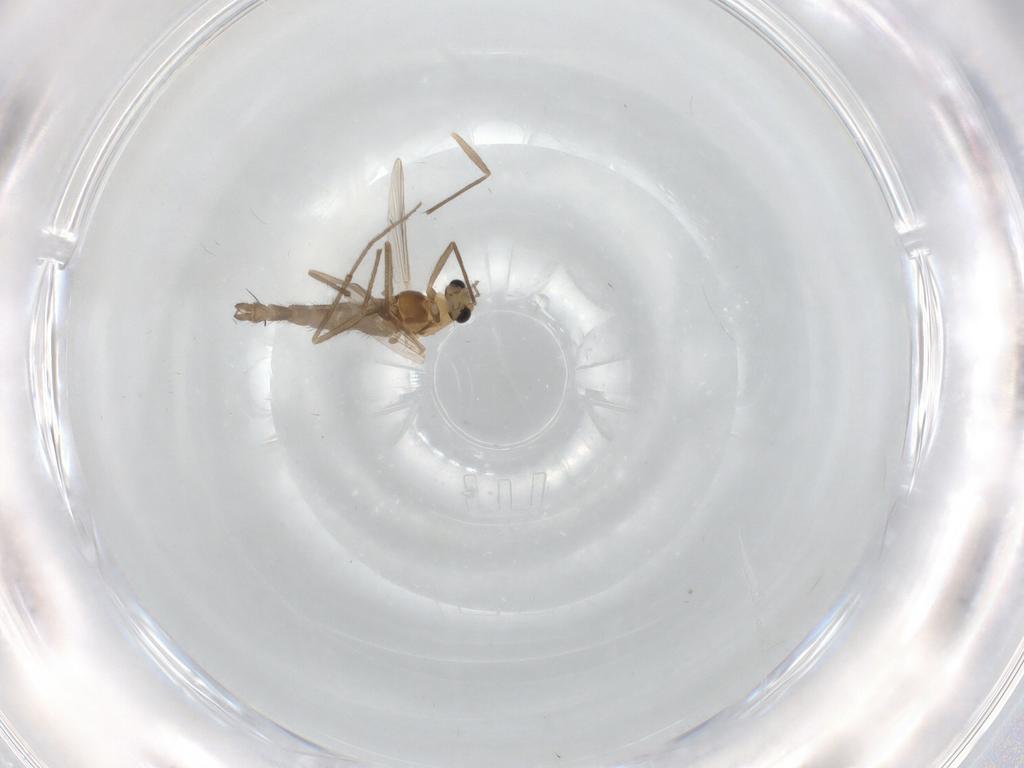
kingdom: Animalia
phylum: Arthropoda
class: Insecta
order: Diptera
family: Chironomidae
